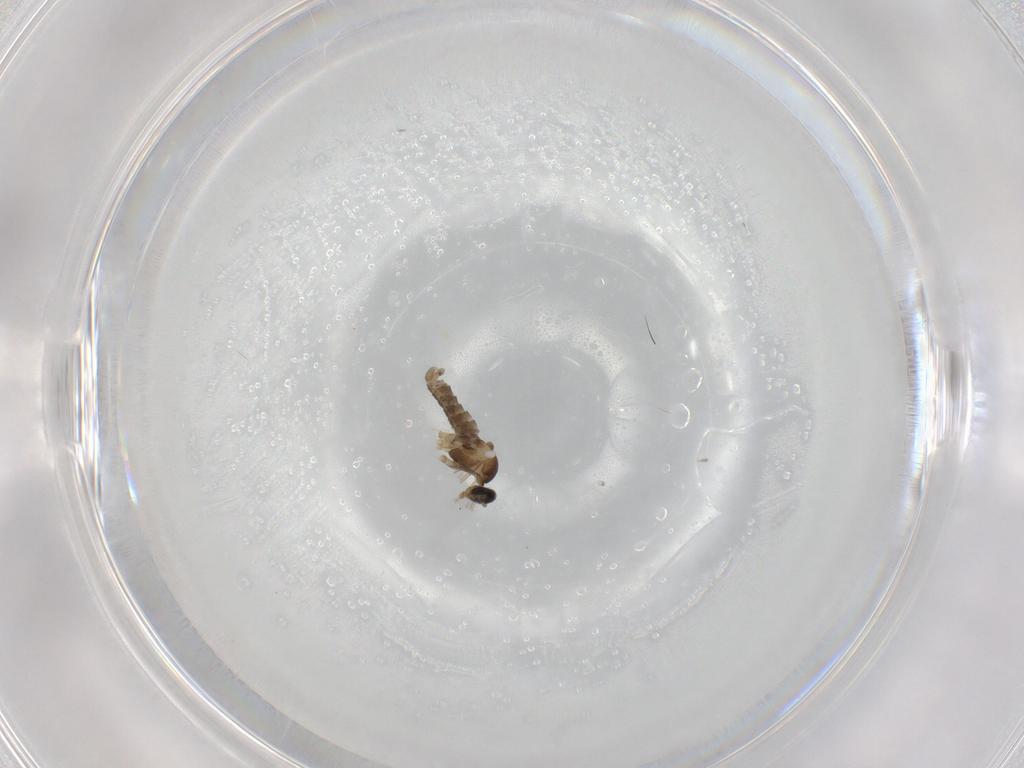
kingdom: Animalia
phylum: Arthropoda
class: Insecta
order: Diptera
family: Cecidomyiidae
